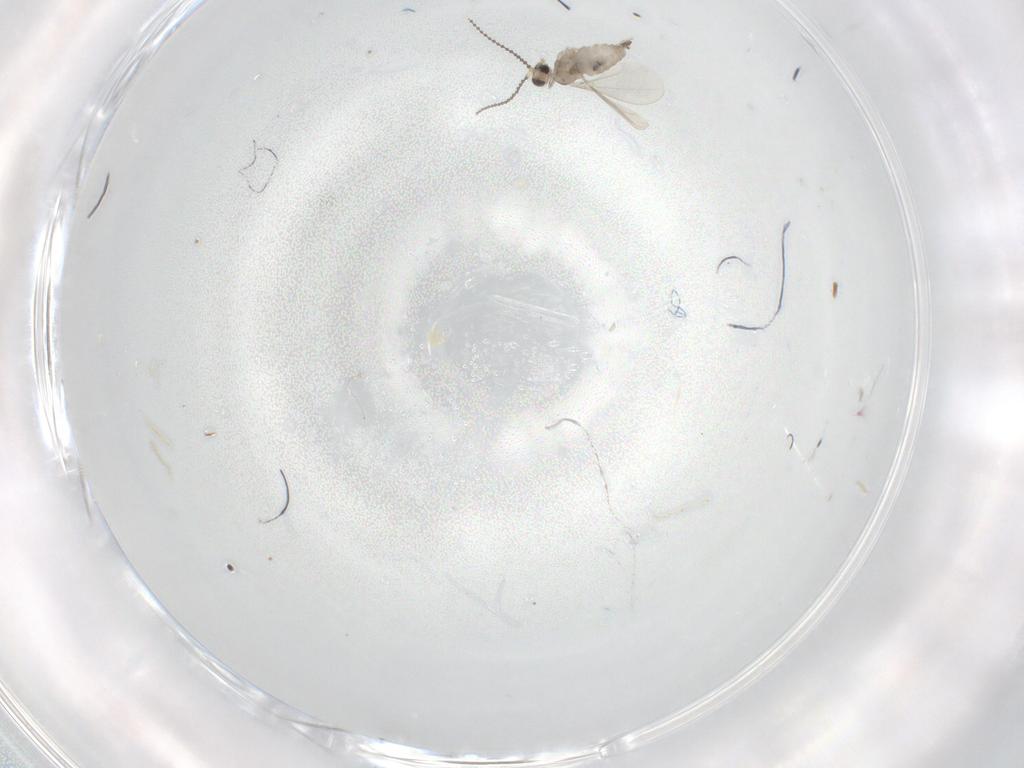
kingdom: Animalia
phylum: Arthropoda
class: Insecta
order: Diptera
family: Cecidomyiidae
